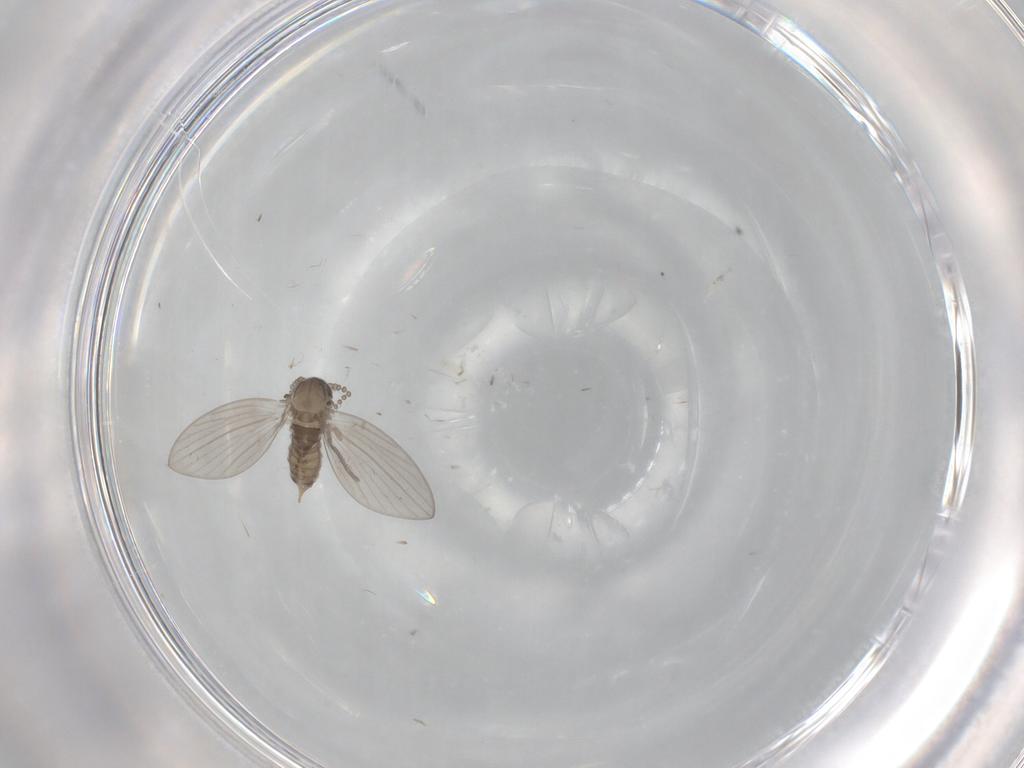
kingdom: Animalia
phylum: Arthropoda
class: Insecta
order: Diptera
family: Psychodidae
